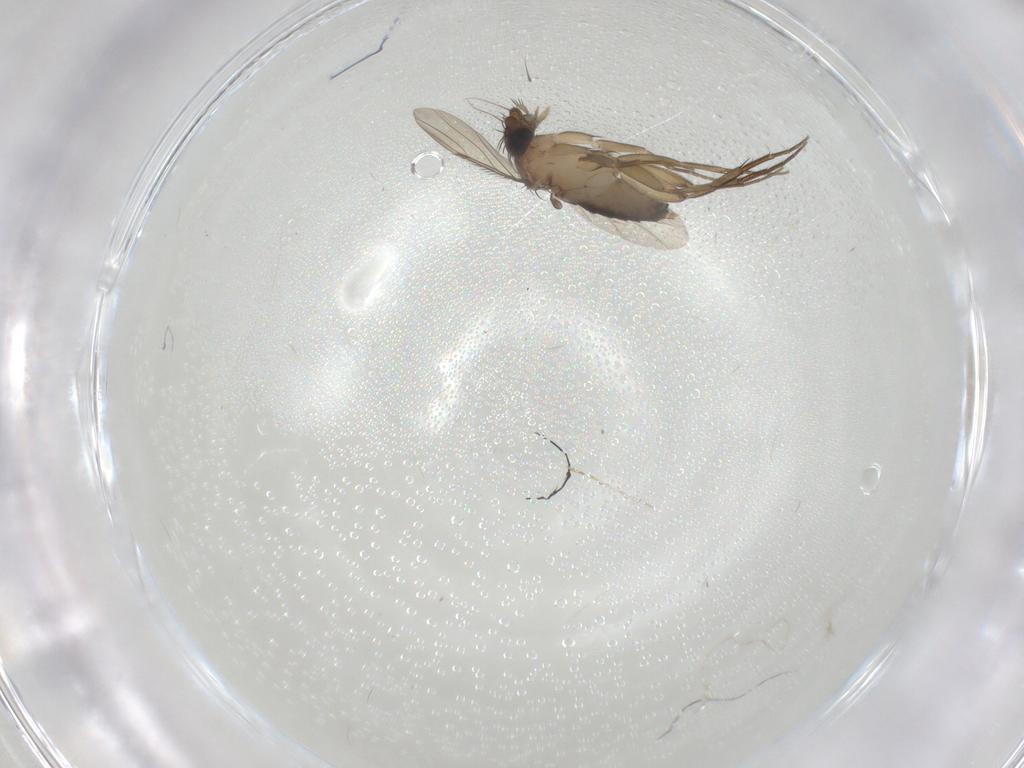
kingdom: Animalia
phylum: Arthropoda
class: Insecta
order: Diptera
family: Phoridae
